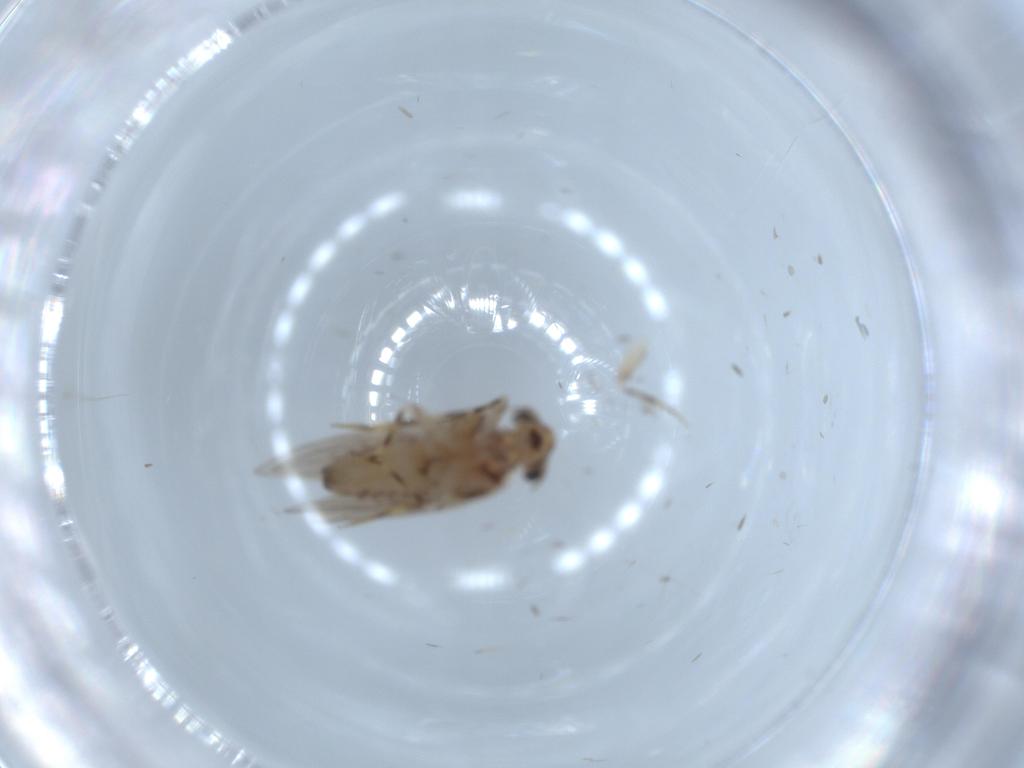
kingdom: Animalia
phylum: Arthropoda
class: Insecta
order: Psocodea
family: Lepidopsocidae
